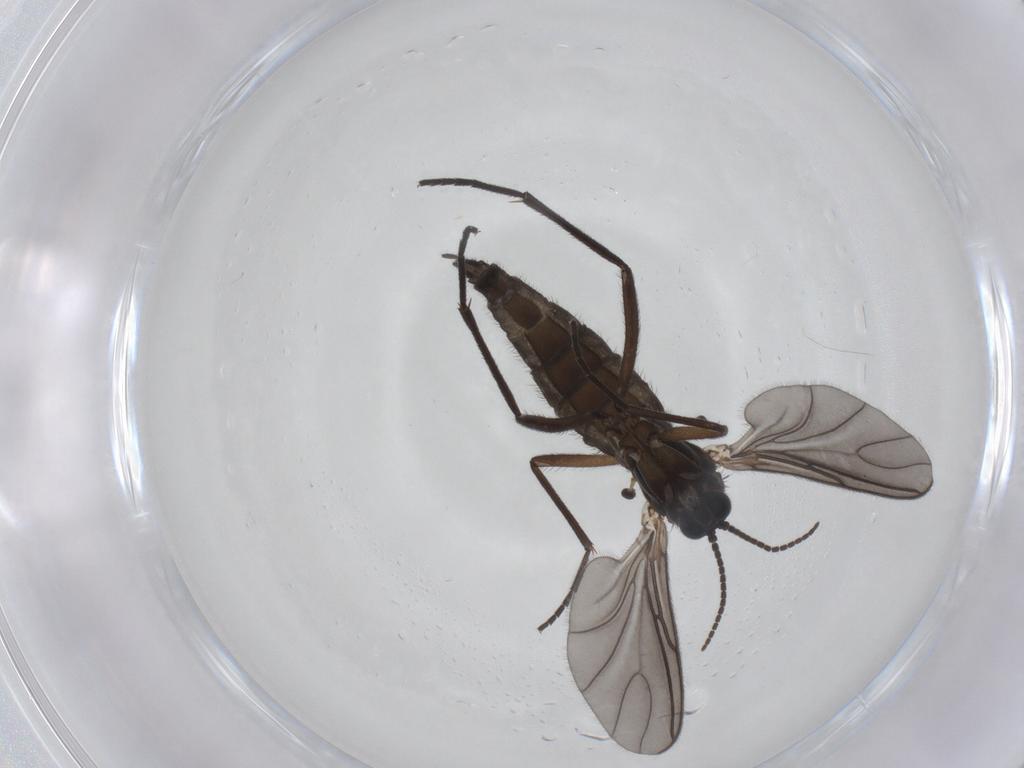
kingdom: Animalia
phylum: Arthropoda
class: Insecta
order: Diptera
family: Sciaridae
